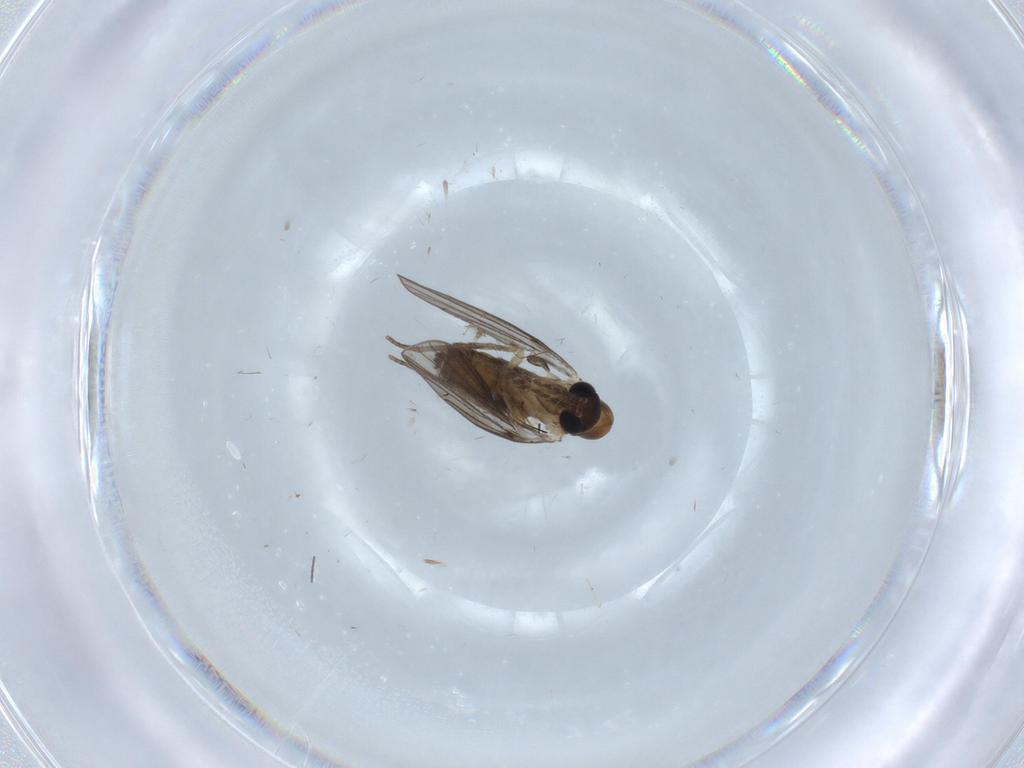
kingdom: Animalia
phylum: Arthropoda
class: Insecta
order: Diptera
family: Psychodidae
